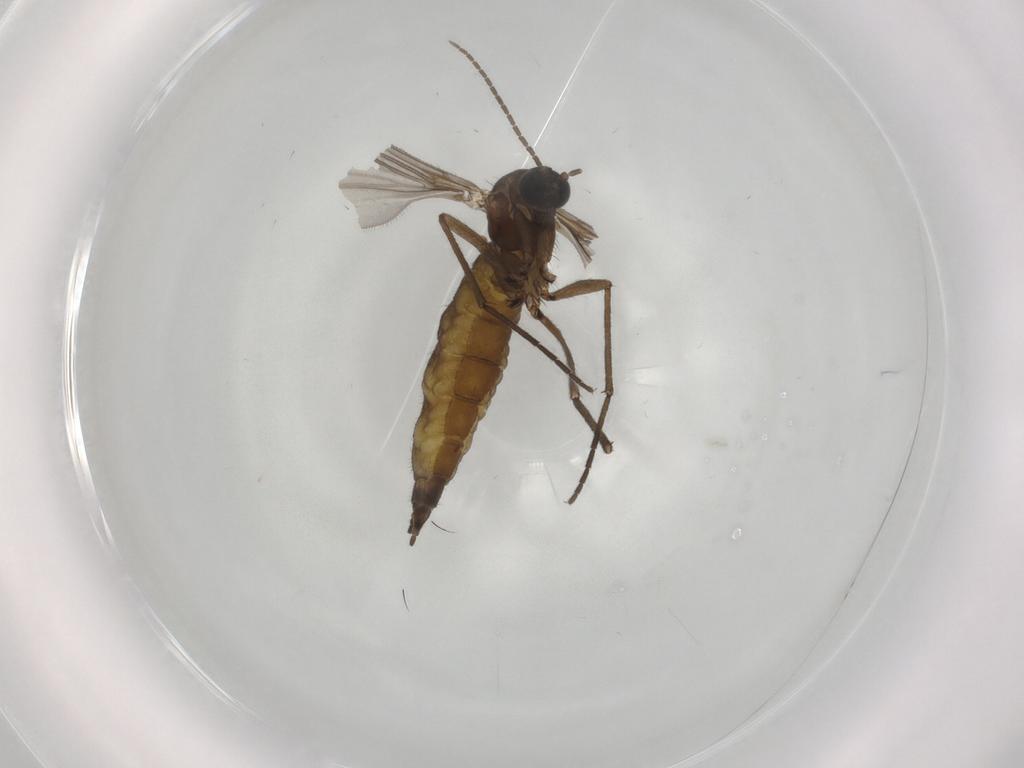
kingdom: Animalia
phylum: Arthropoda
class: Insecta
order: Diptera
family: Sciaridae
